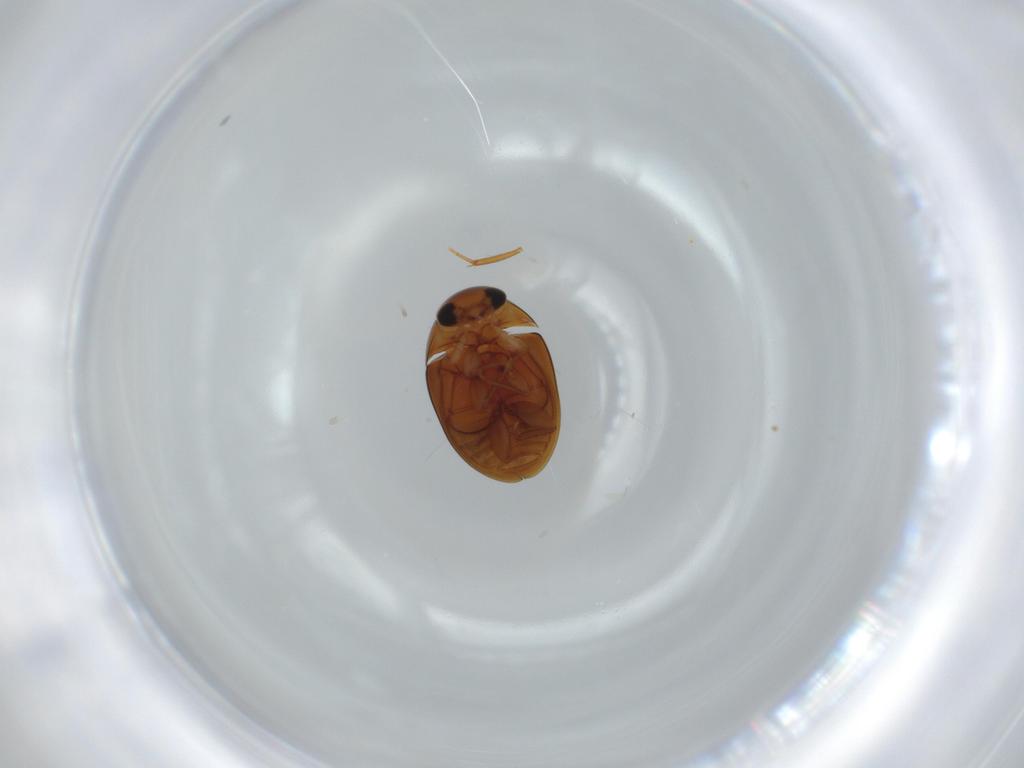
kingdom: Animalia
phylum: Arthropoda
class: Insecta
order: Coleoptera
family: Phalacridae
